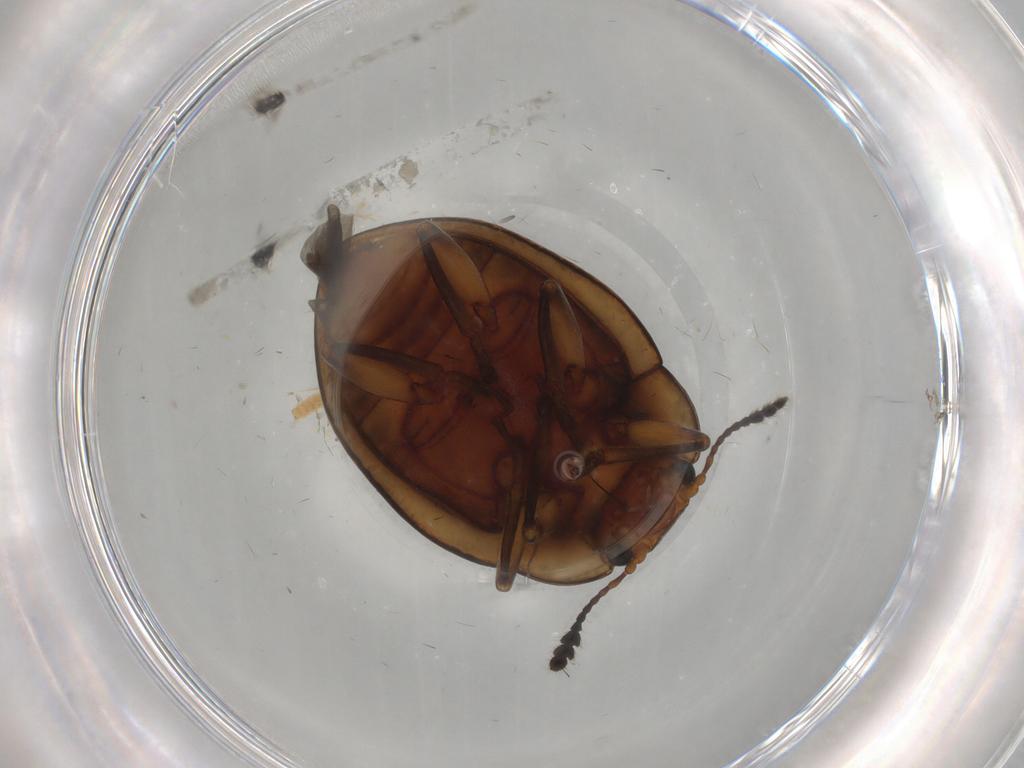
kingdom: Animalia
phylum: Arthropoda
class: Insecta
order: Coleoptera
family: Erotylidae
